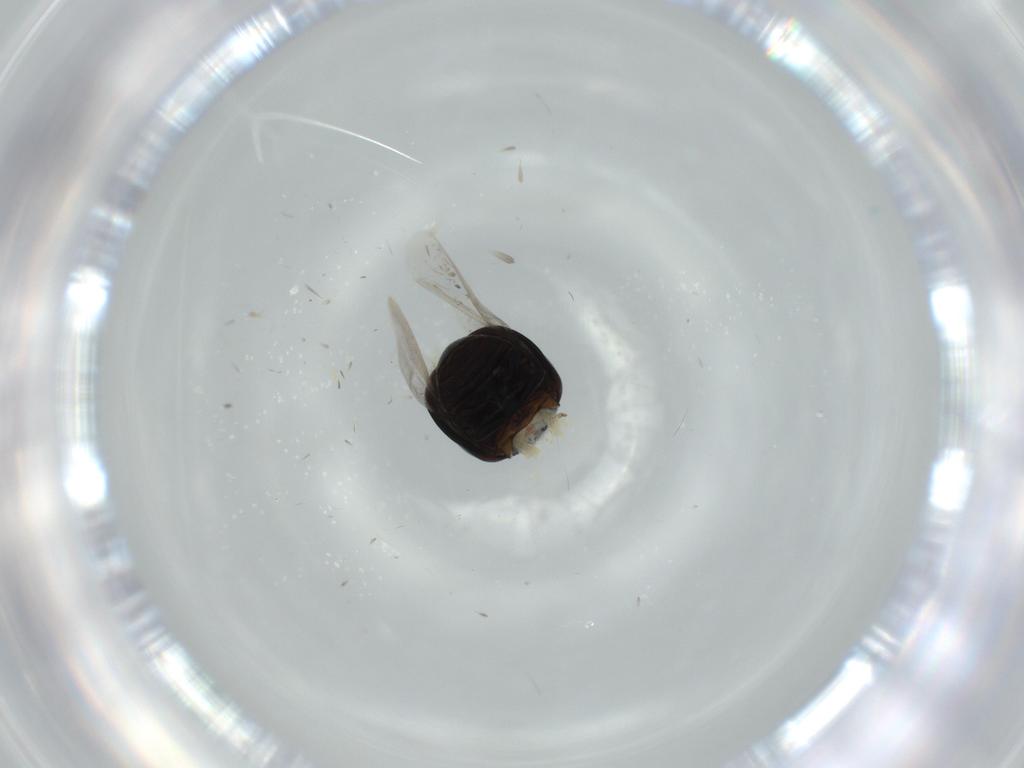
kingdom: Animalia
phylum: Arthropoda
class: Insecta
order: Coleoptera
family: Cybocephalidae
